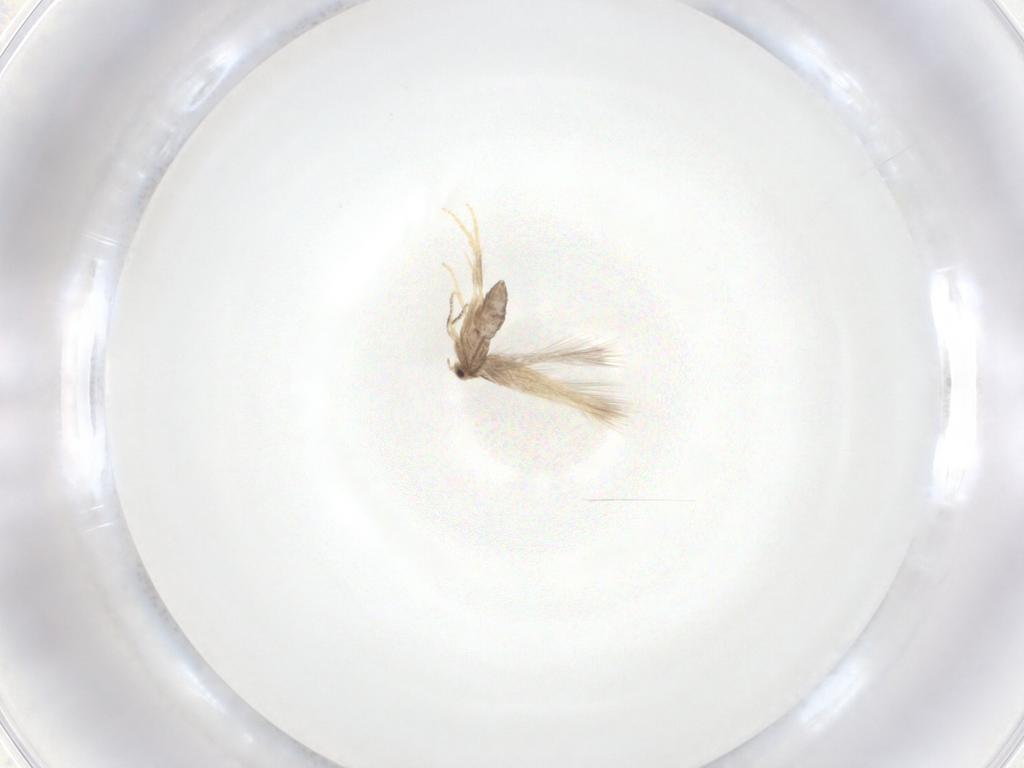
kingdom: Animalia
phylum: Arthropoda
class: Insecta
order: Lepidoptera
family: Nepticulidae
